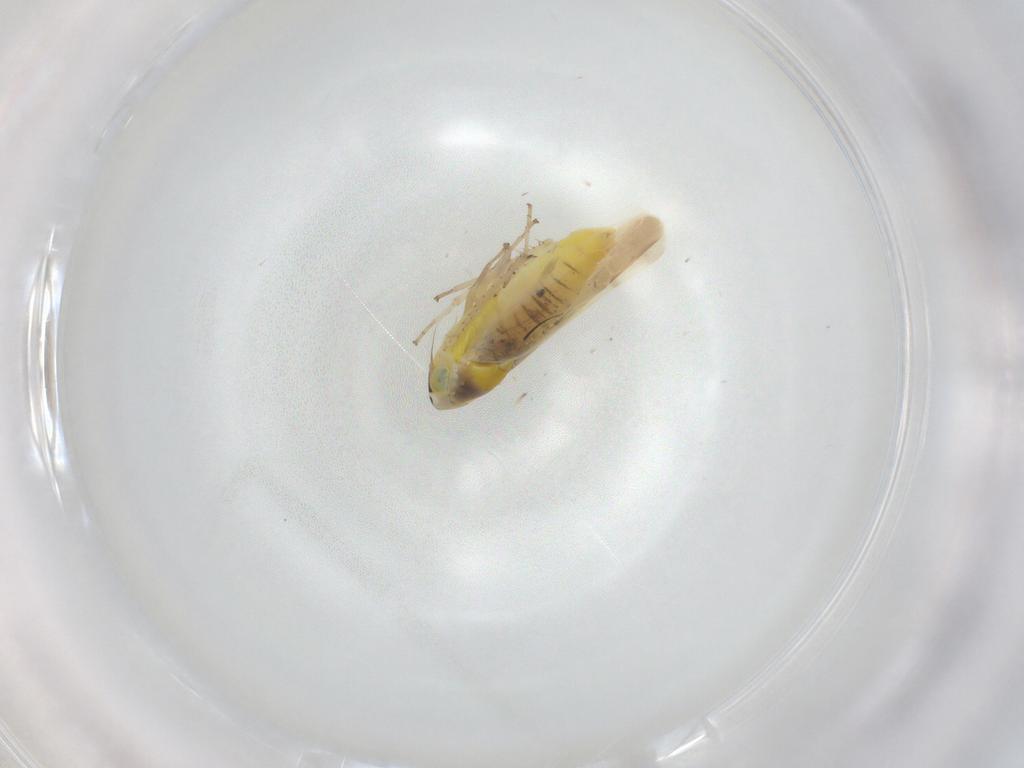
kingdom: Animalia
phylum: Arthropoda
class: Insecta
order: Hemiptera
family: Cicadellidae
